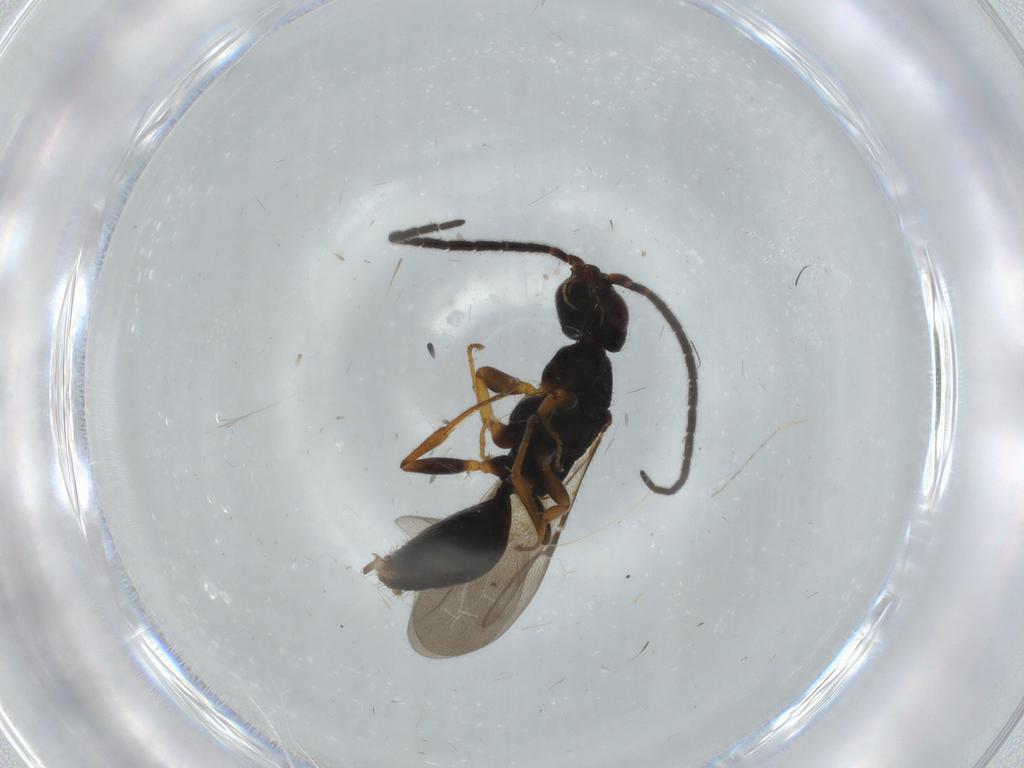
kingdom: Animalia
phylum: Arthropoda
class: Insecta
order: Hymenoptera
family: Bethylidae
